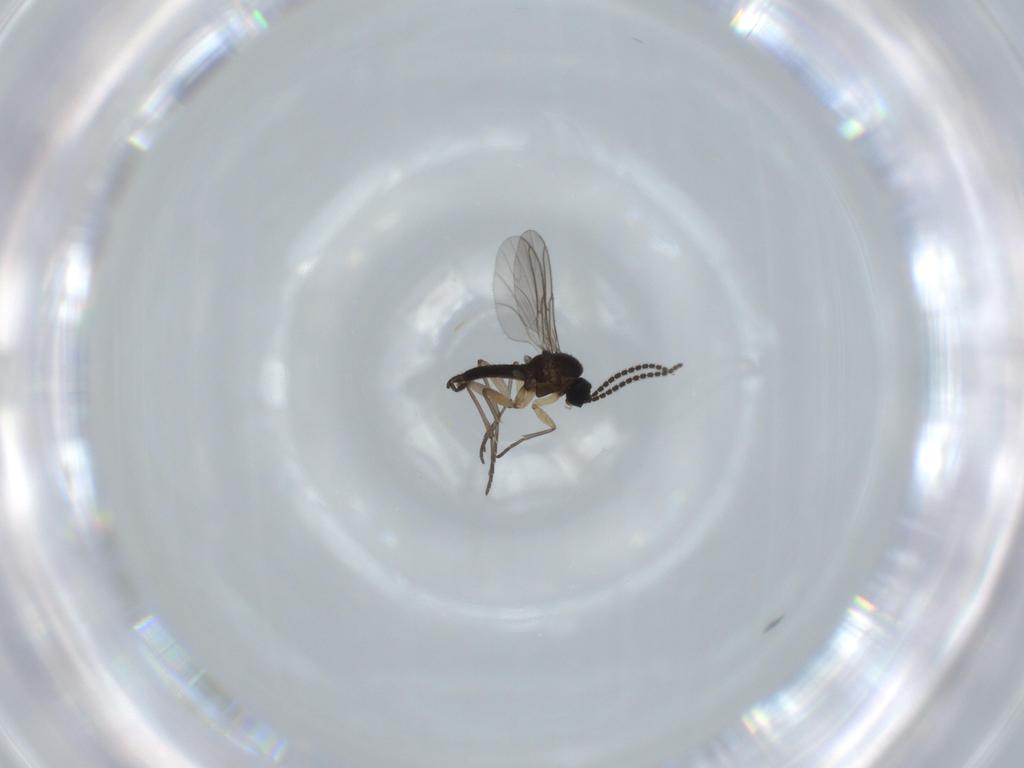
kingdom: Animalia
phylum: Arthropoda
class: Insecta
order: Diptera
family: Sciaridae
